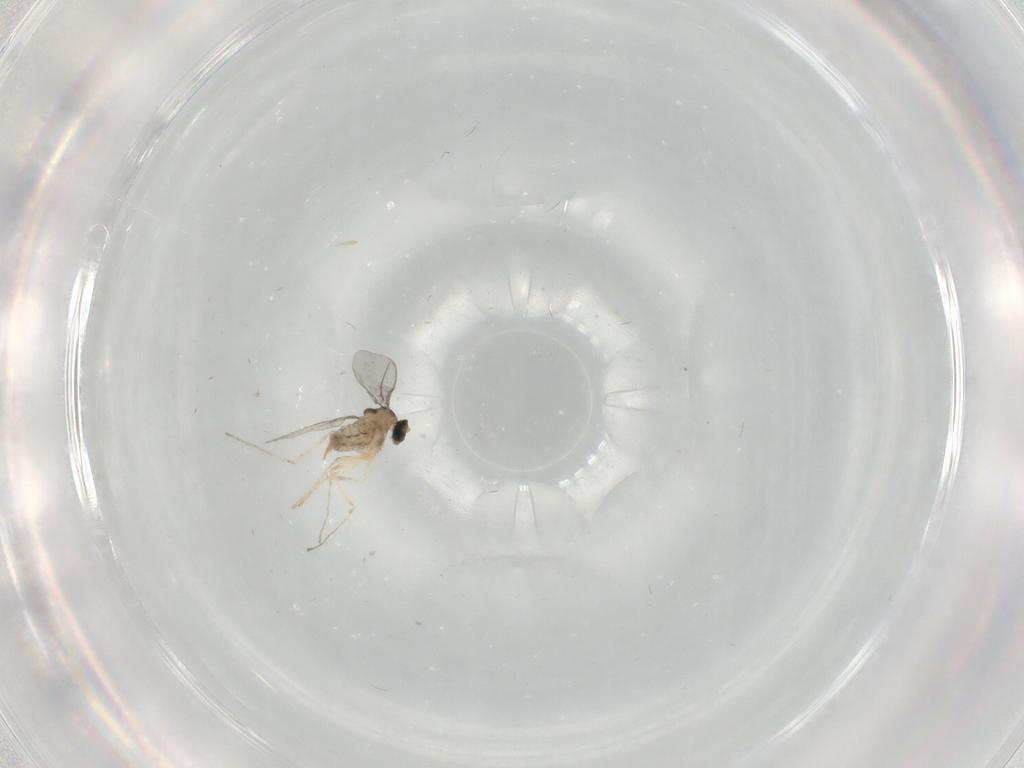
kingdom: Animalia
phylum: Arthropoda
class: Insecta
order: Diptera
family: Cecidomyiidae
